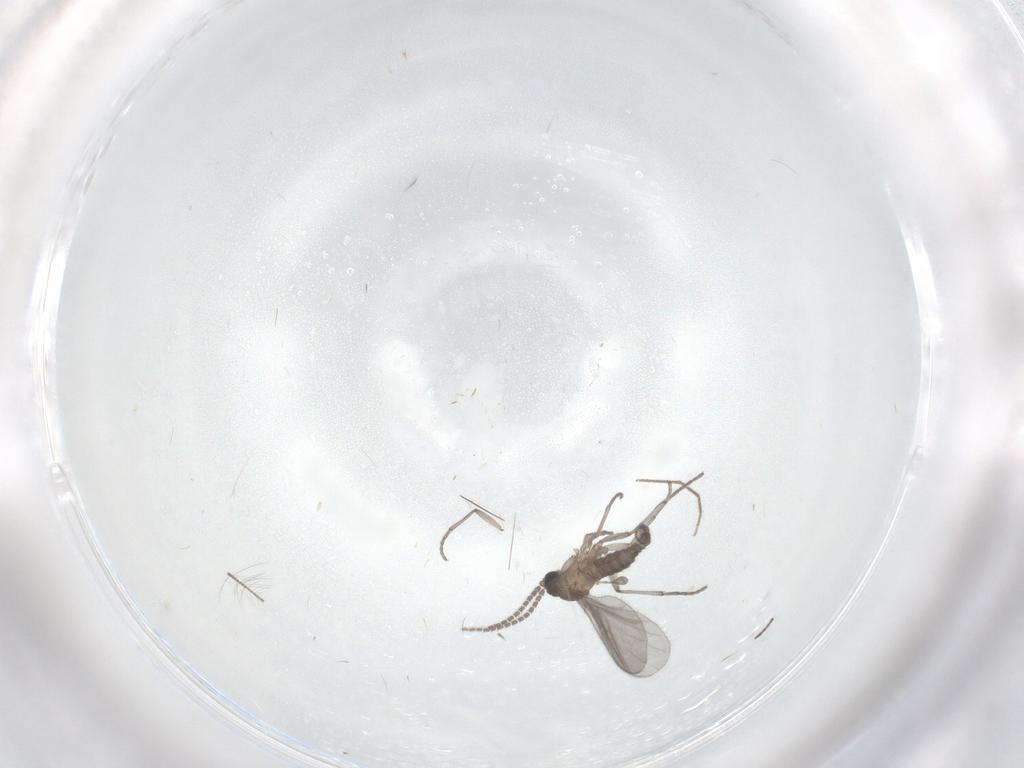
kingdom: Animalia
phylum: Arthropoda
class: Insecta
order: Diptera
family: Sciaridae
